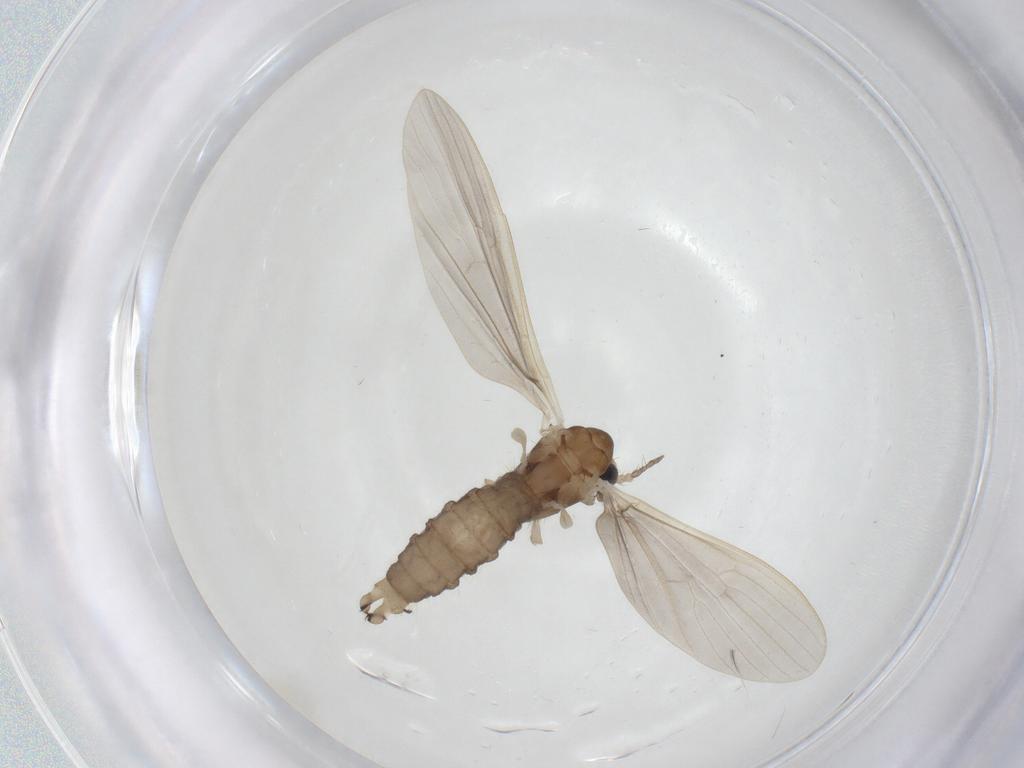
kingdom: Animalia
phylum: Arthropoda
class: Insecta
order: Diptera
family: Limoniidae
